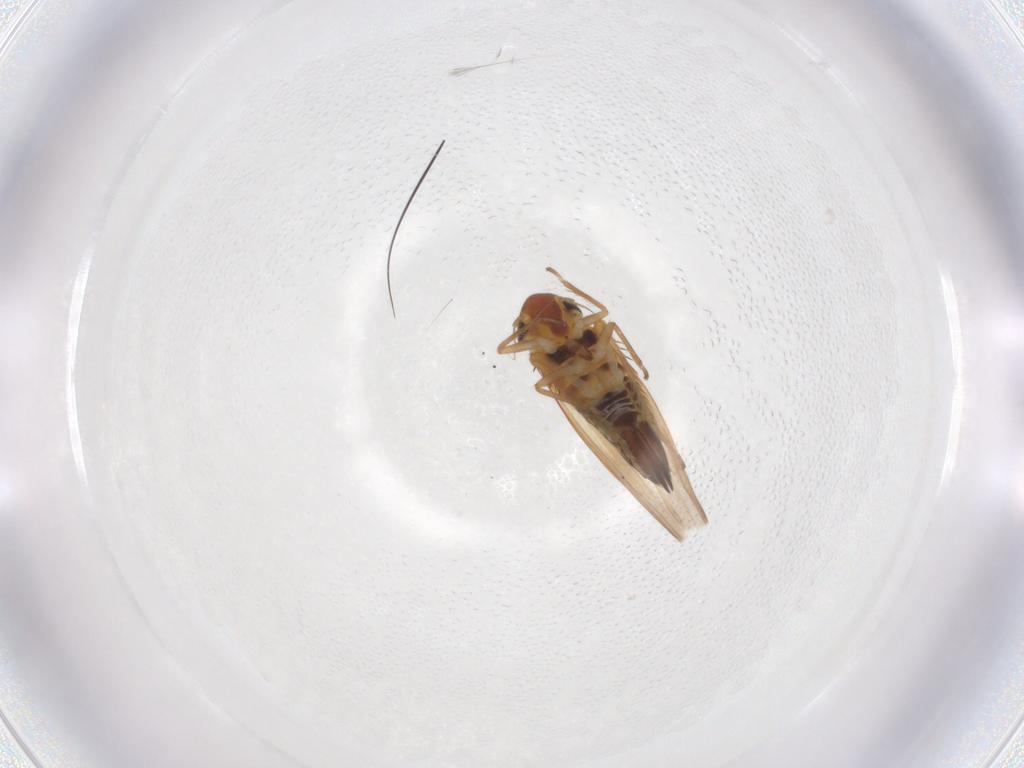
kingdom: Animalia
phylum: Arthropoda
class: Insecta
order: Hemiptera
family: Cicadellidae
